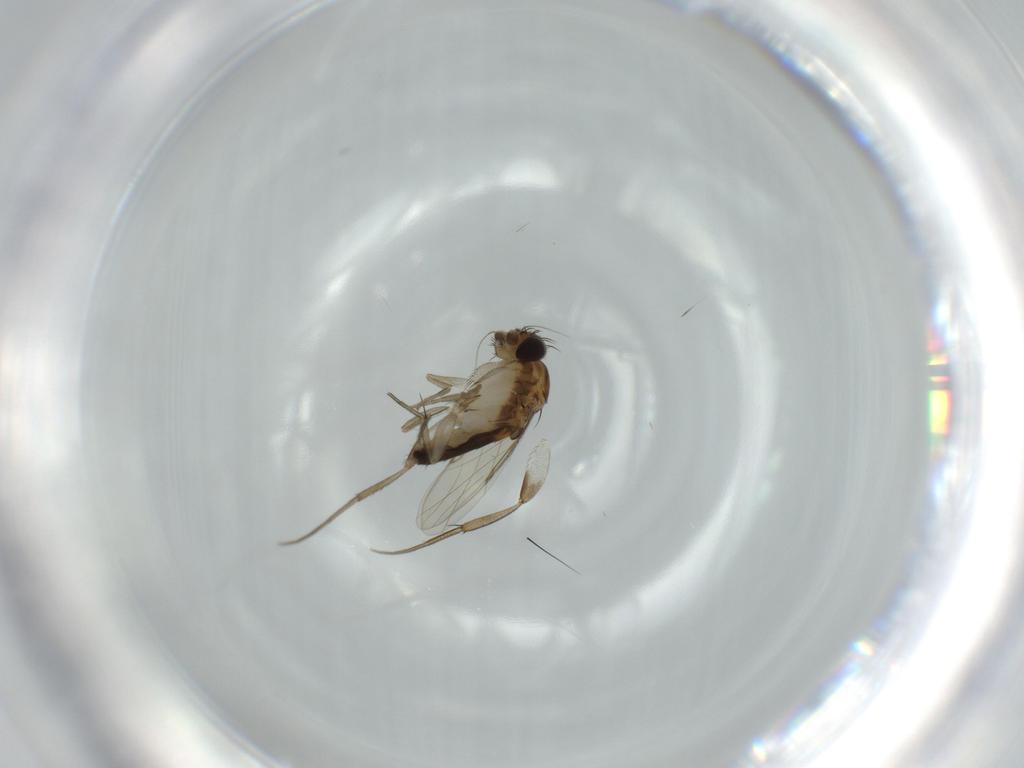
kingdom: Animalia
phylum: Arthropoda
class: Insecta
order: Diptera
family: Phoridae
